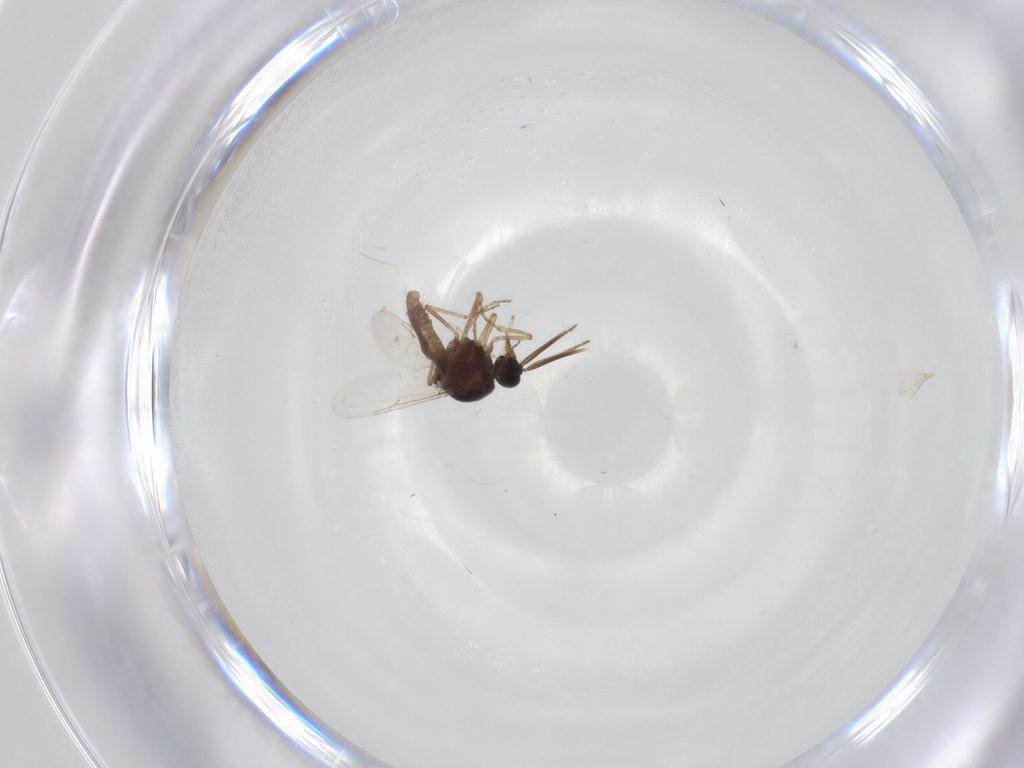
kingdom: Animalia
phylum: Arthropoda
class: Insecta
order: Diptera
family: Ceratopogonidae
